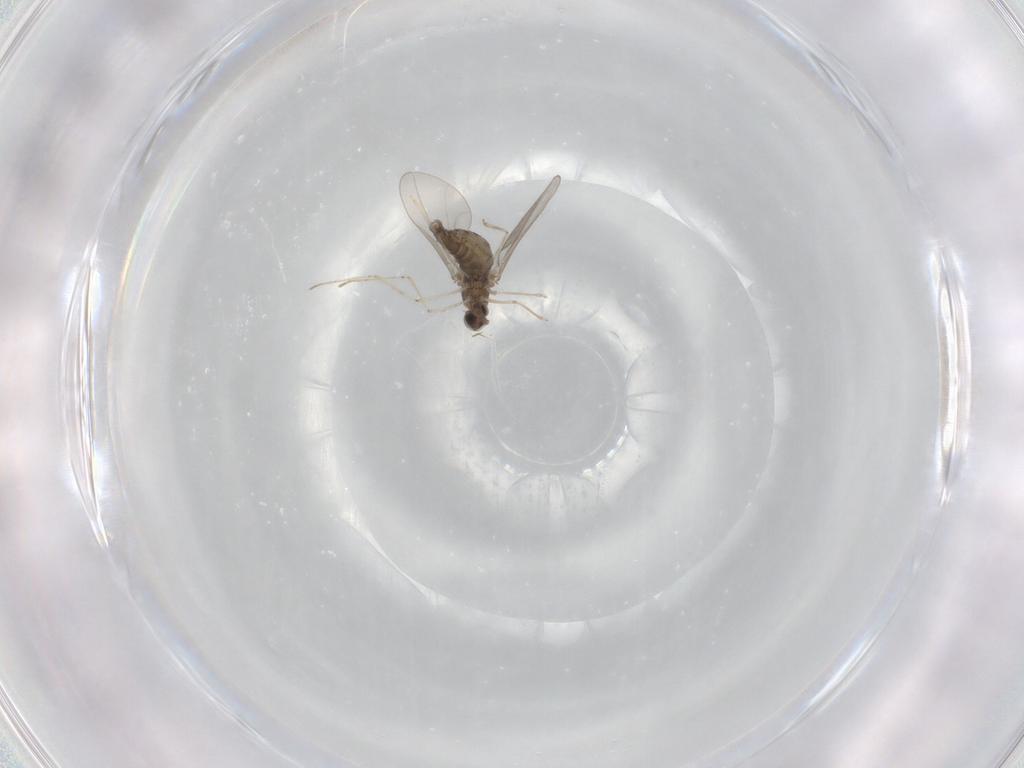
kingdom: Animalia
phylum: Arthropoda
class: Insecta
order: Diptera
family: Cecidomyiidae
